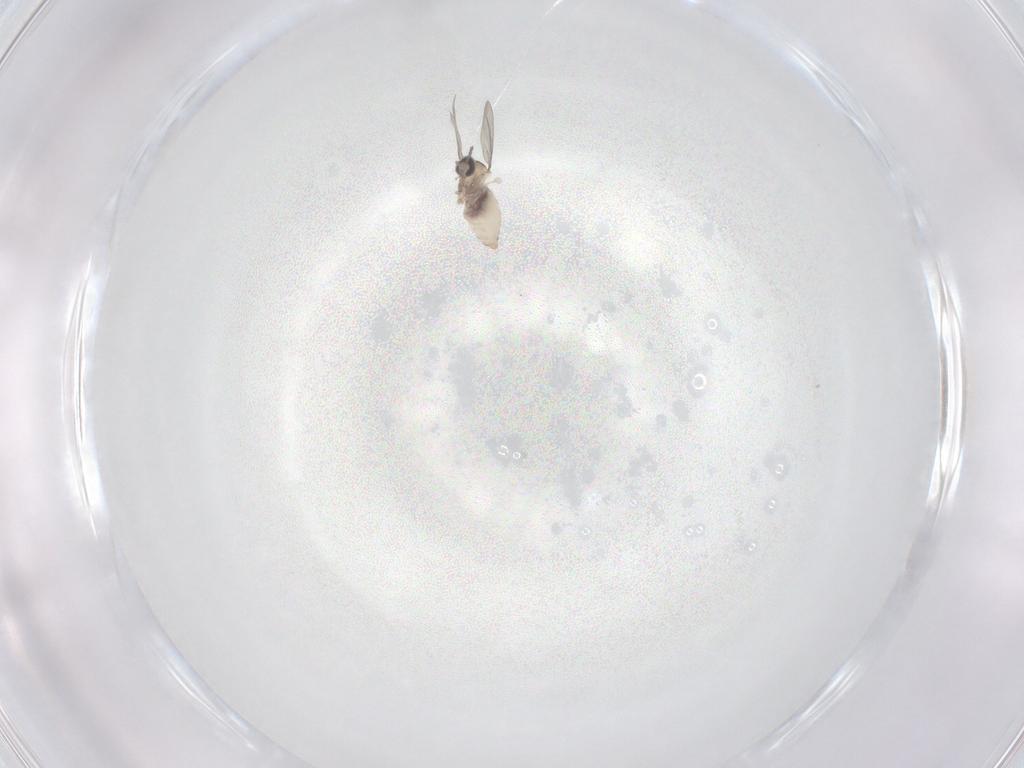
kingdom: Animalia
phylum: Arthropoda
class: Insecta
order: Diptera
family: Cecidomyiidae
